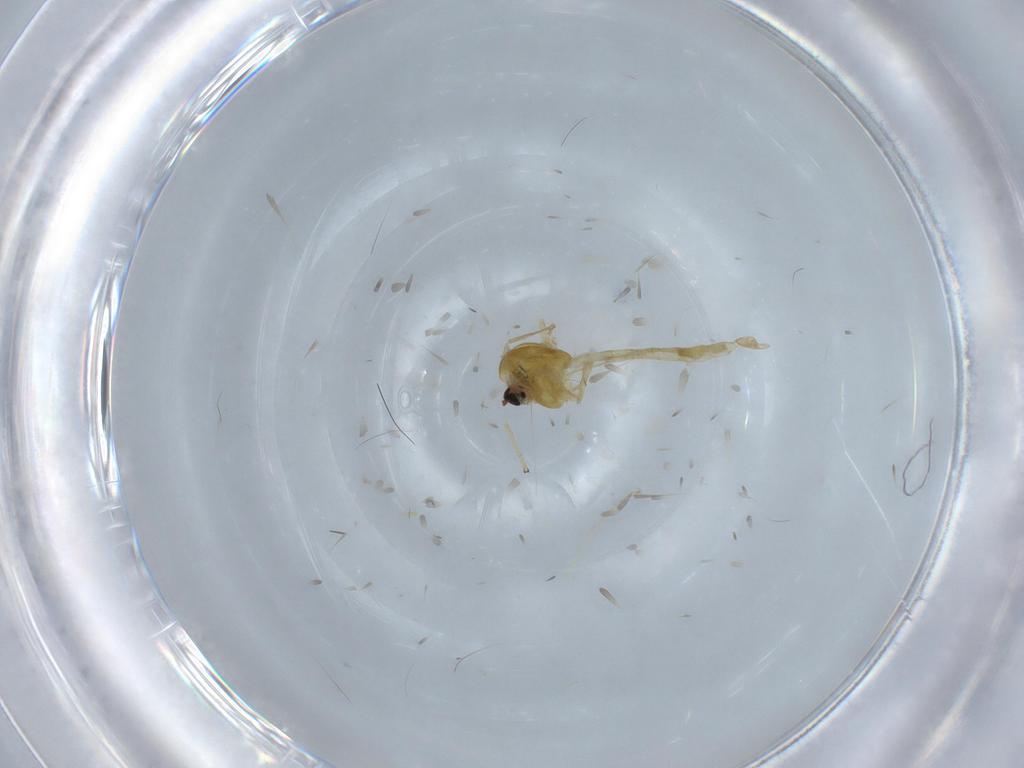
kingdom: Animalia
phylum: Arthropoda
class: Insecta
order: Diptera
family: Chironomidae
